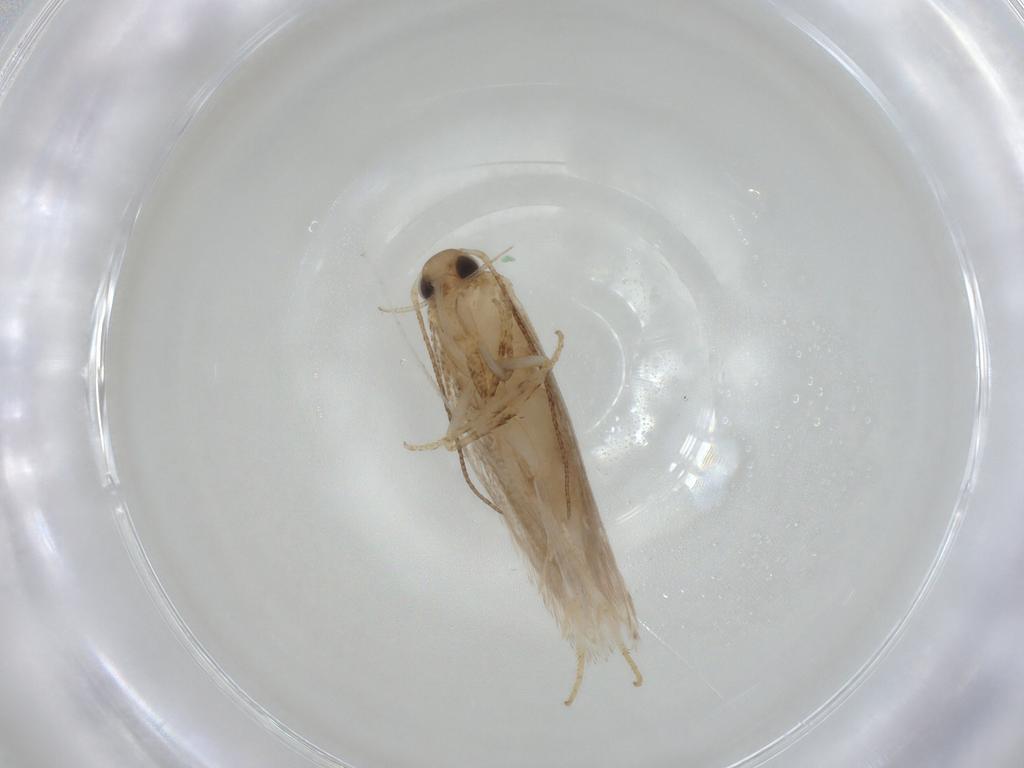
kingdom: Animalia
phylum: Arthropoda
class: Insecta
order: Lepidoptera
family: Gelechiidae
